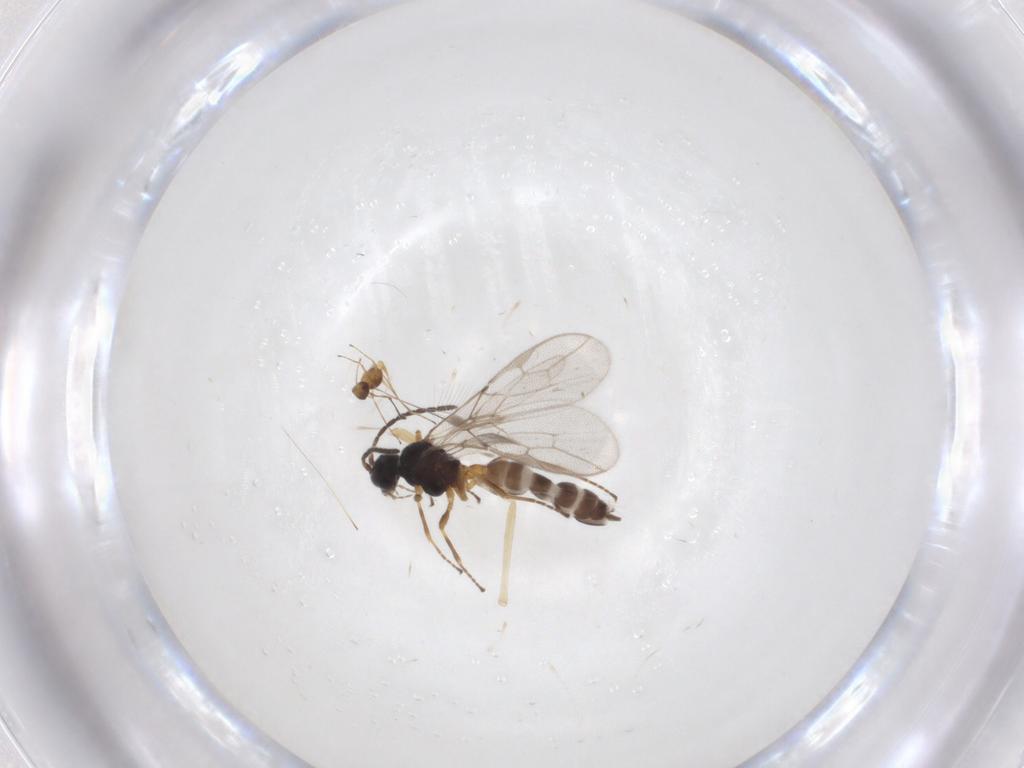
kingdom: Animalia
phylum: Arthropoda
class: Insecta
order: Hymenoptera
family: Braconidae
